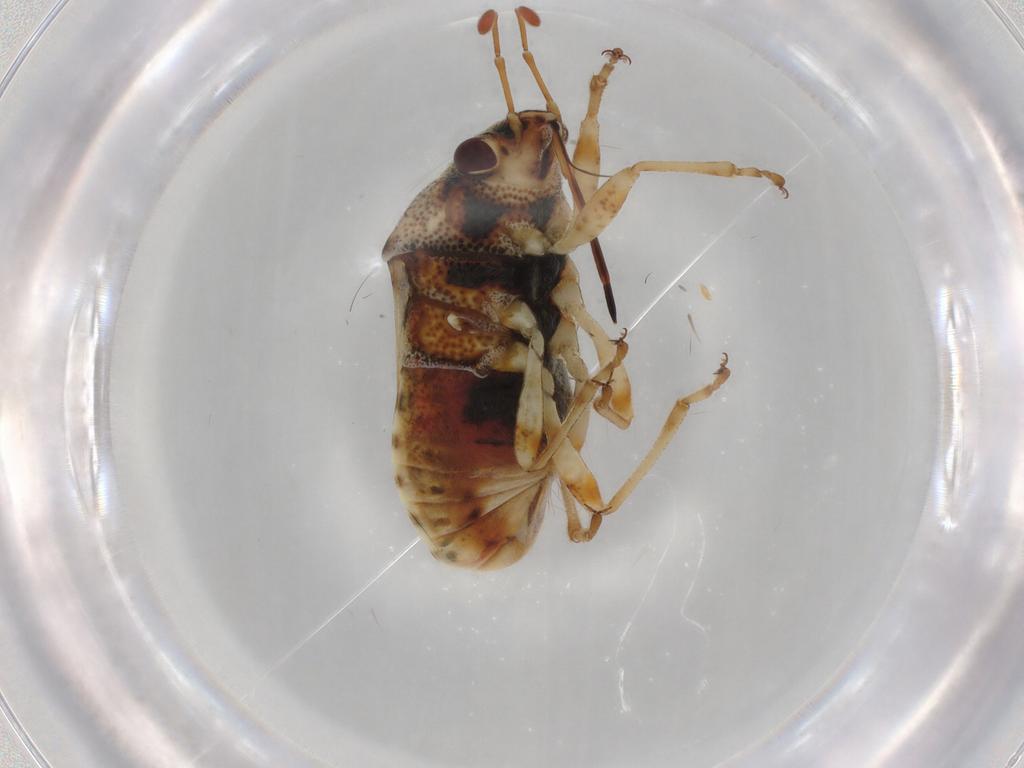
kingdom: Animalia
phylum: Arthropoda
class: Insecta
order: Hemiptera
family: Lygaeidae
